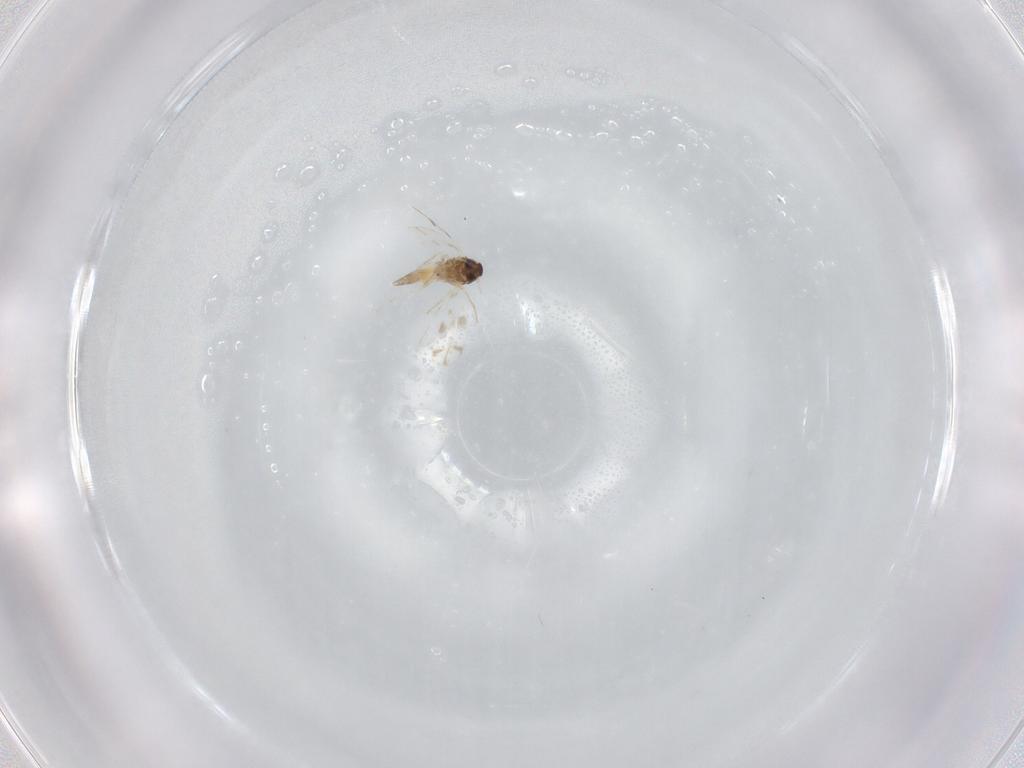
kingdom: Animalia
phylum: Arthropoda
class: Insecta
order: Hemiptera
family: Aleyrodidae
